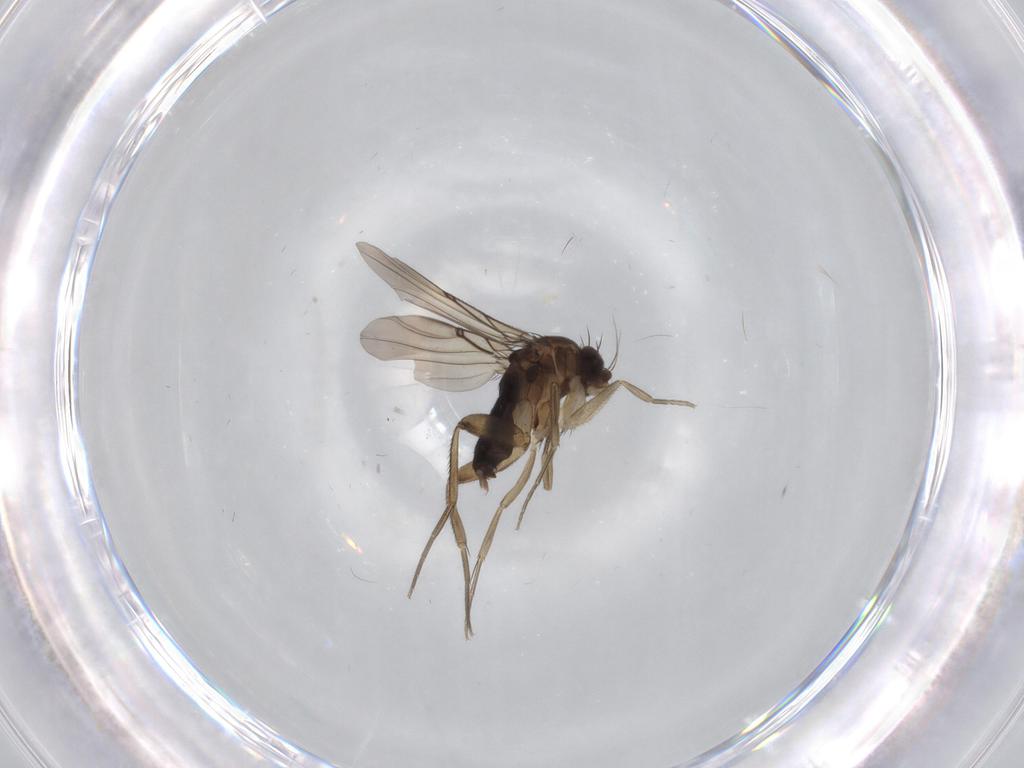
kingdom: Animalia
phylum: Arthropoda
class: Insecta
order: Diptera
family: Phoridae
